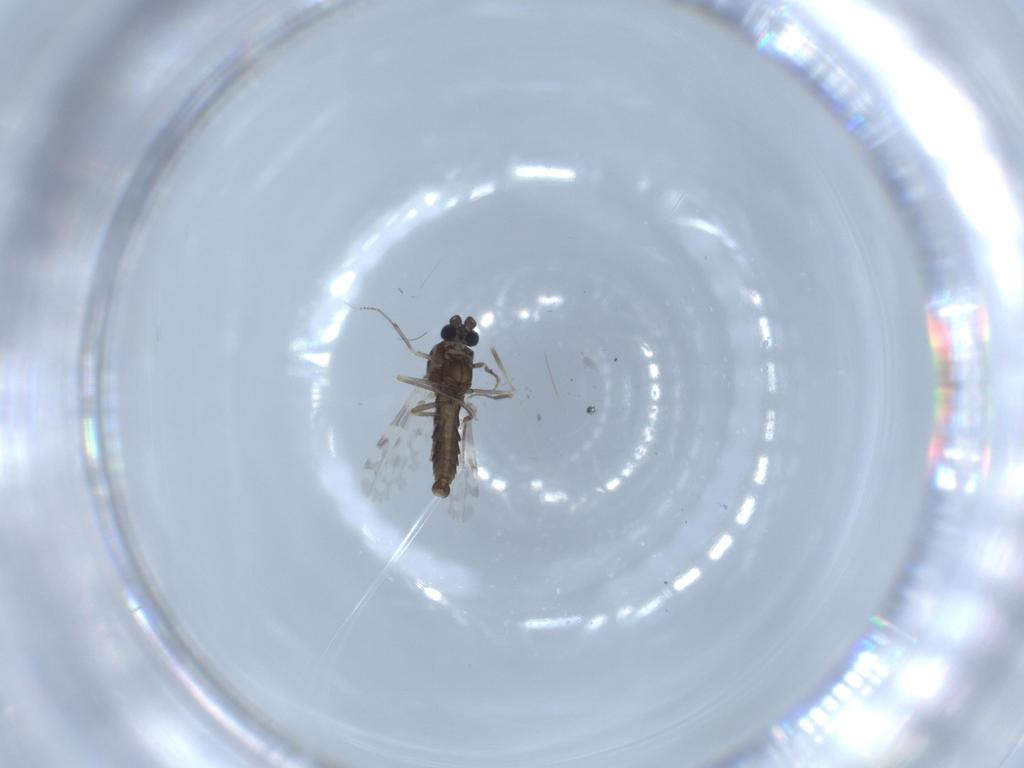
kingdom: Animalia
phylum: Arthropoda
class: Insecta
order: Diptera
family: Ceratopogonidae
